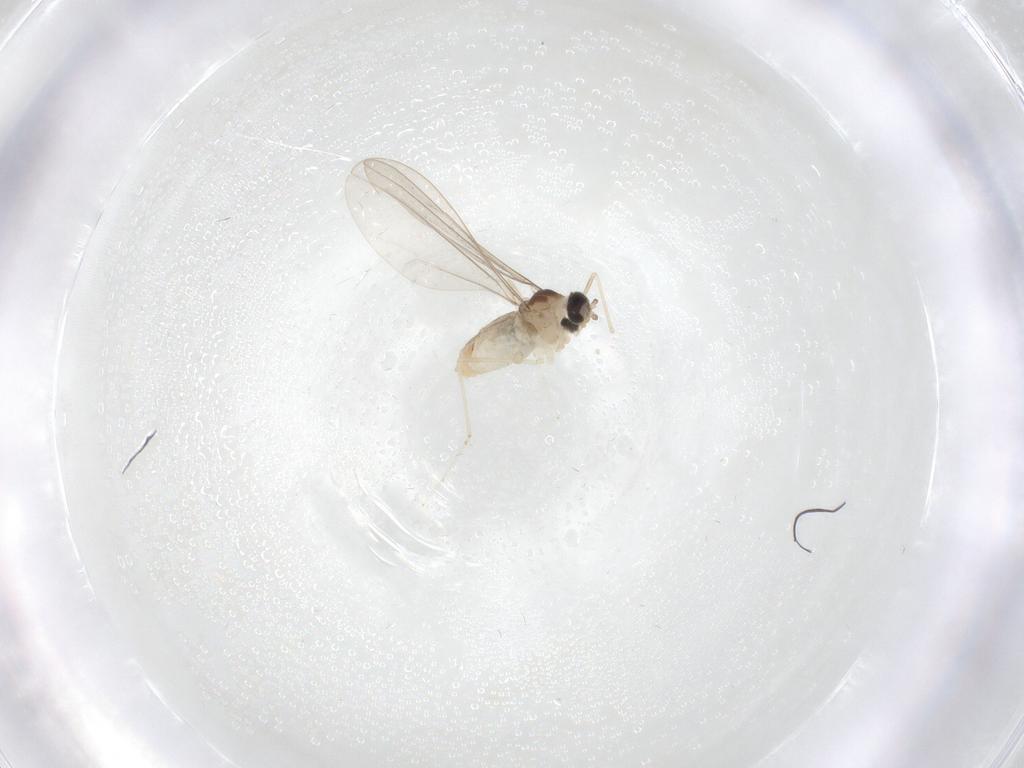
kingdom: Animalia
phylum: Arthropoda
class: Insecta
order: Diptera
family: Cecidomyiidae
